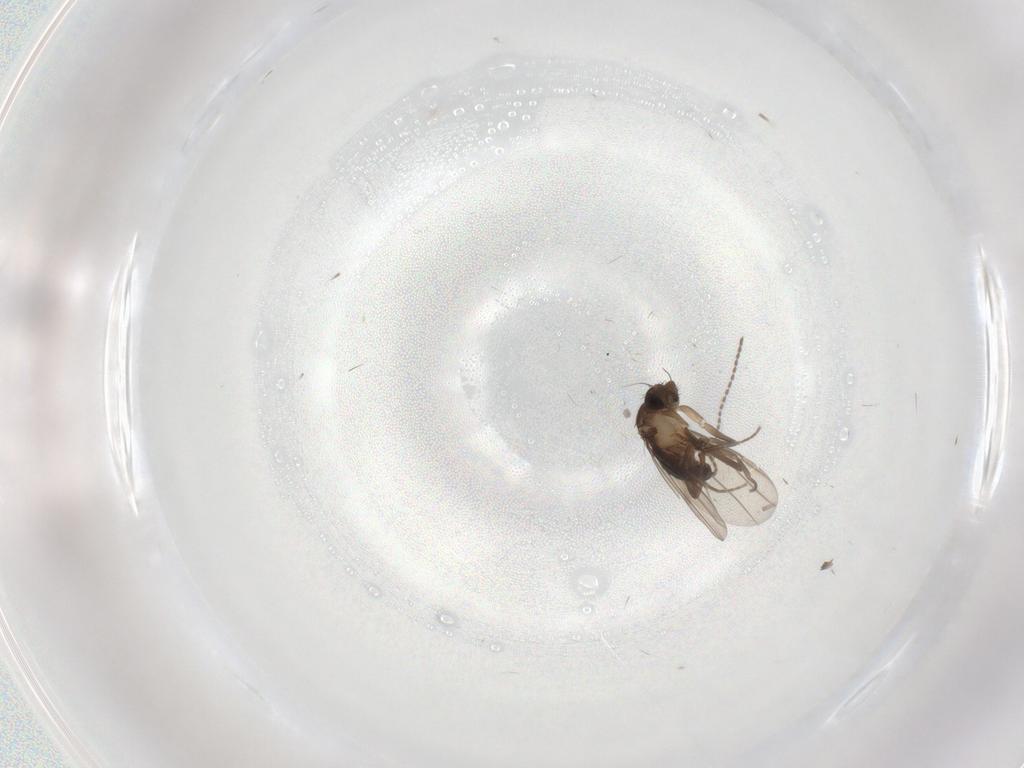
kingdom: Animalia
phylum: Arthropoda
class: Insecta
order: Diptera
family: Phoridae
